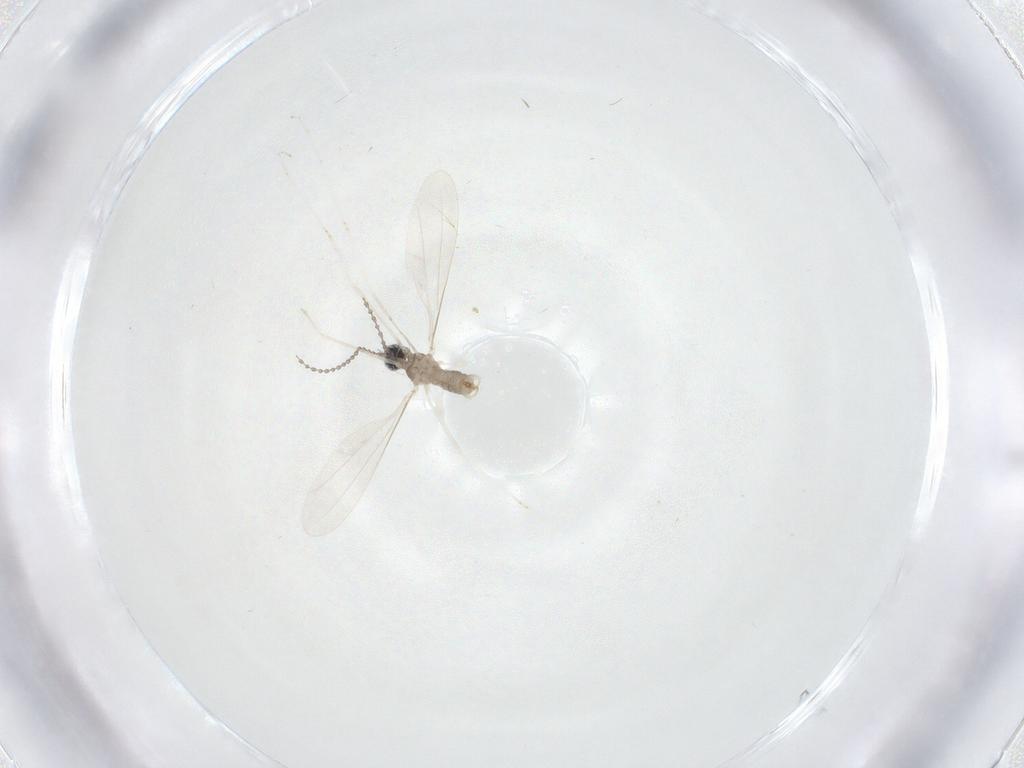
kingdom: Animalia
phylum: Arthropoda
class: Insecta
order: Diptera
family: Cecidomyiidae
